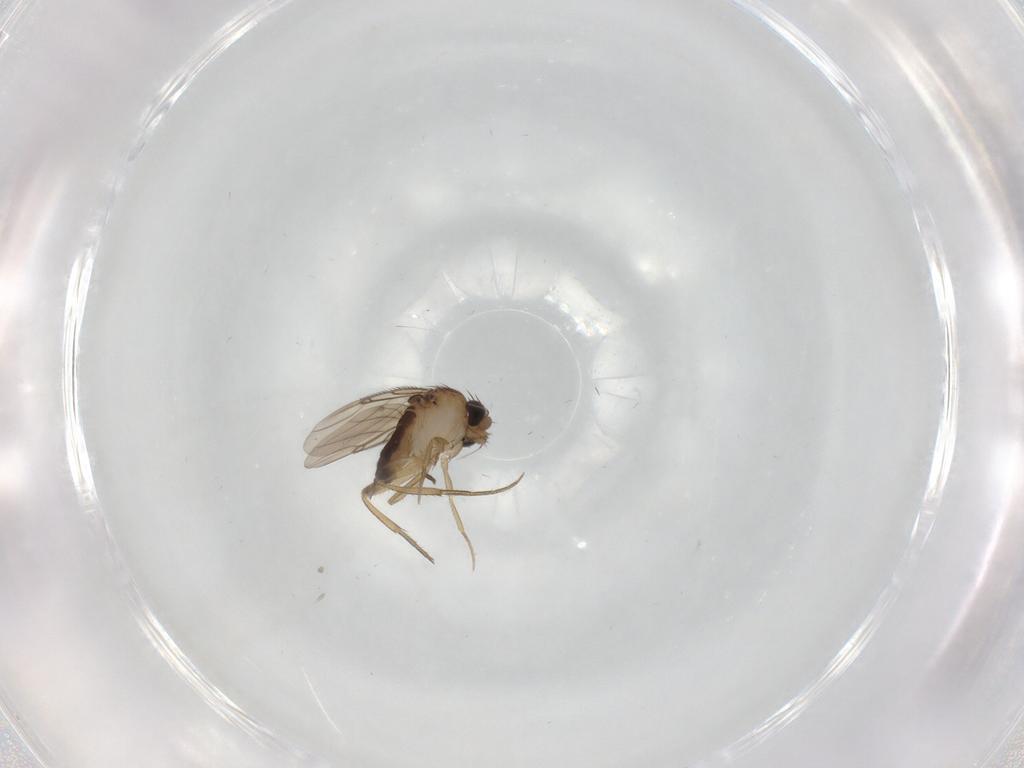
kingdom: Animalia
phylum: Arthropoda
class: Insecta
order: Diptera
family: Phoridae
